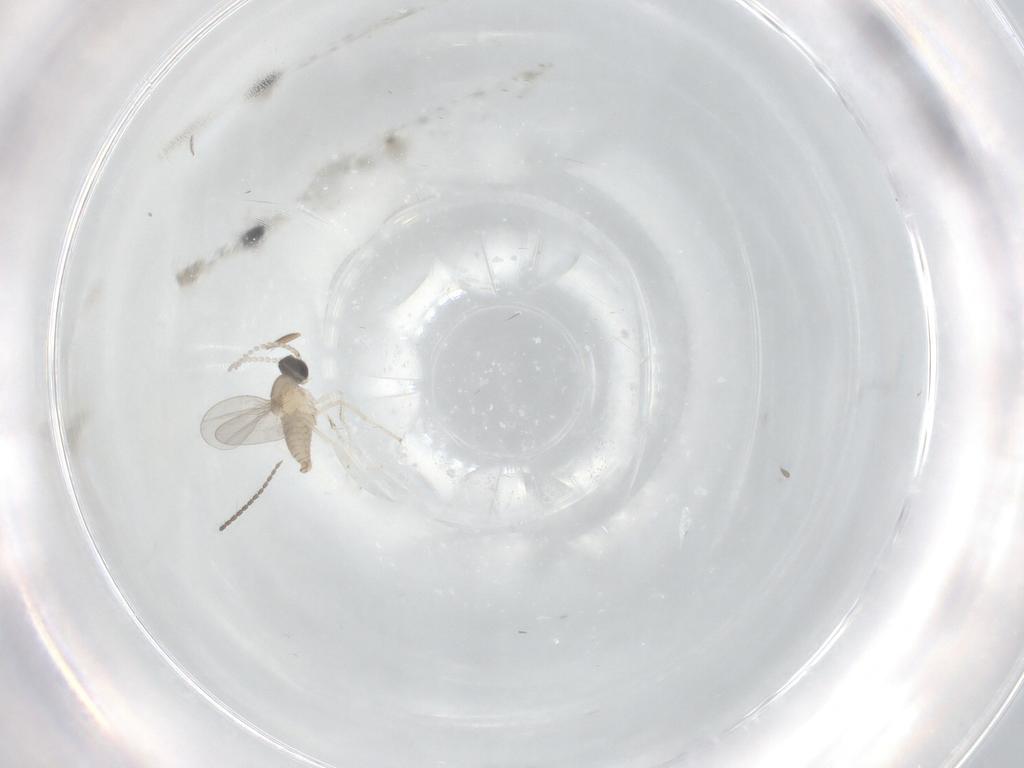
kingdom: Animalia
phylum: Arthropoda
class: Insecta
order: Diptera
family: Phoridae
